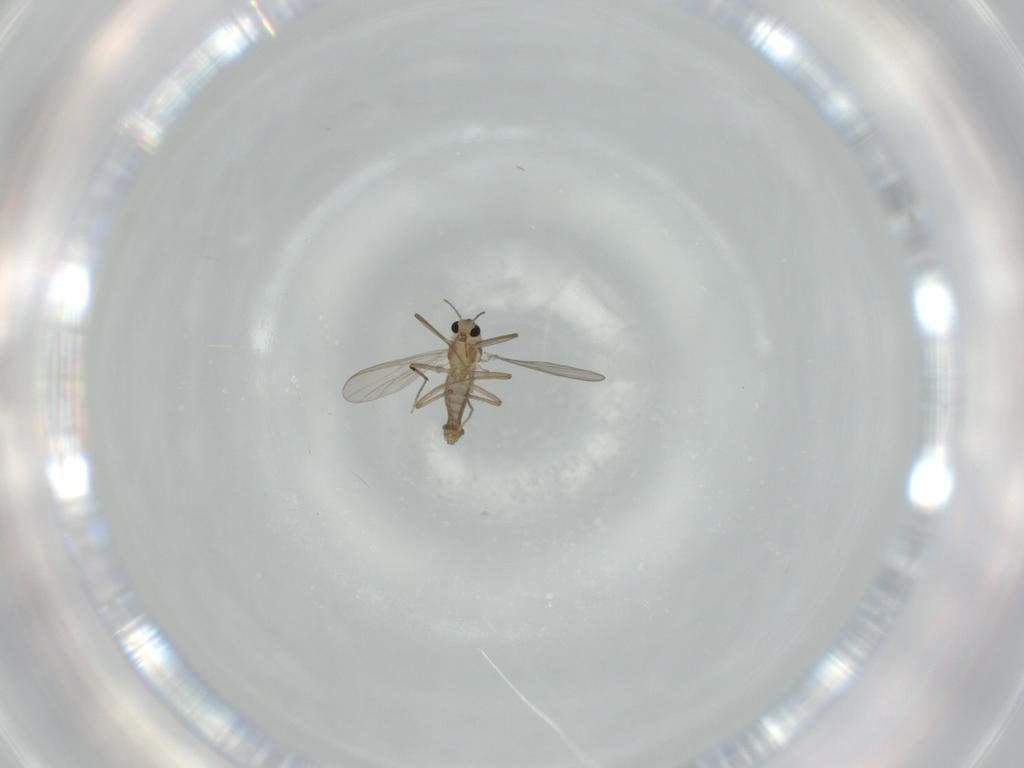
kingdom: Animalia
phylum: Arthropoda
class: Insecta
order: Diptera
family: Chironomidae
